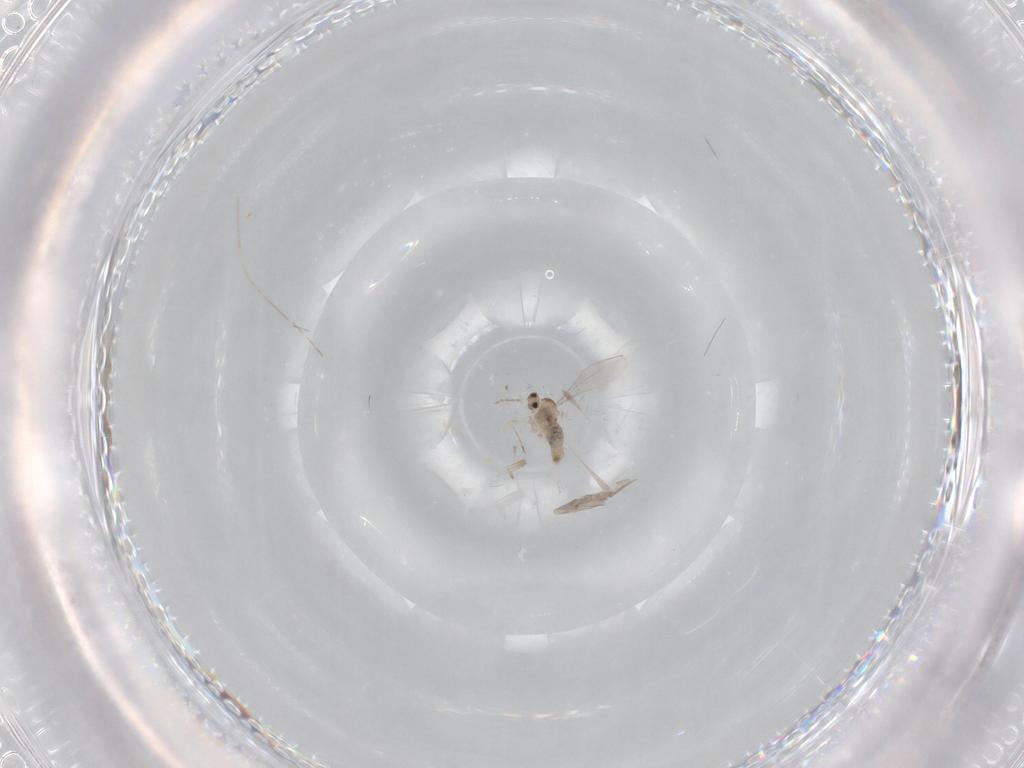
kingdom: Animalia
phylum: Arthropoda
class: Insecta
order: Diptera
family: Cecidomyiidae
